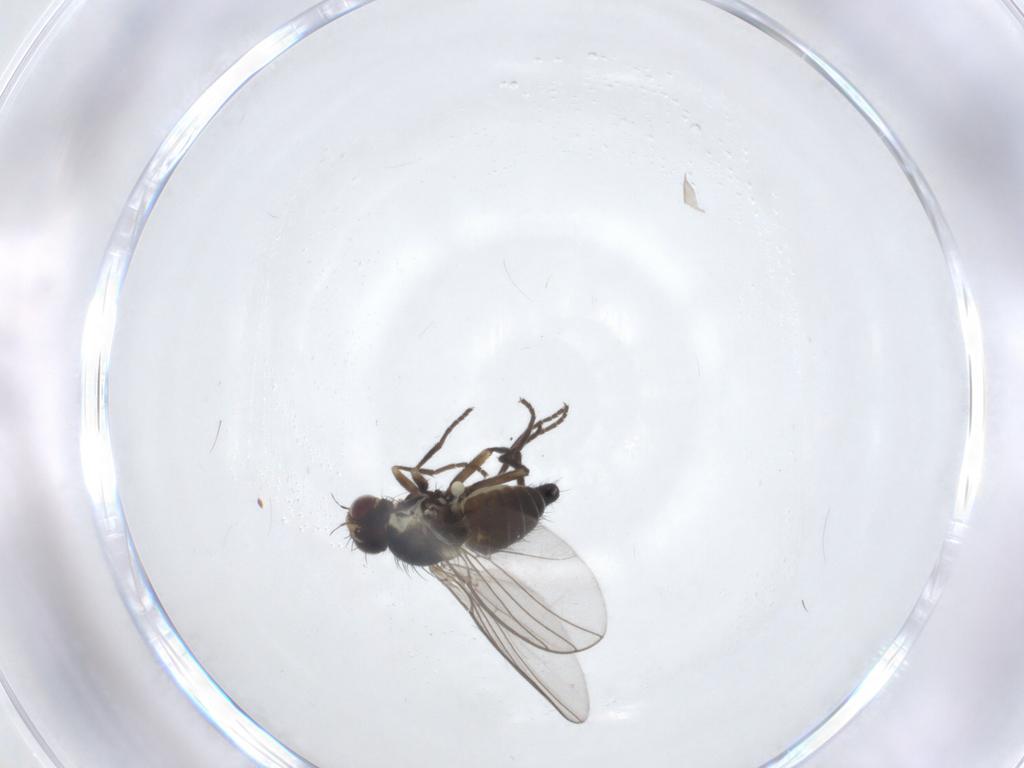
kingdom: Animalia
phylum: Arthropoda
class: Insecta
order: Diptera
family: Agromyzidae
